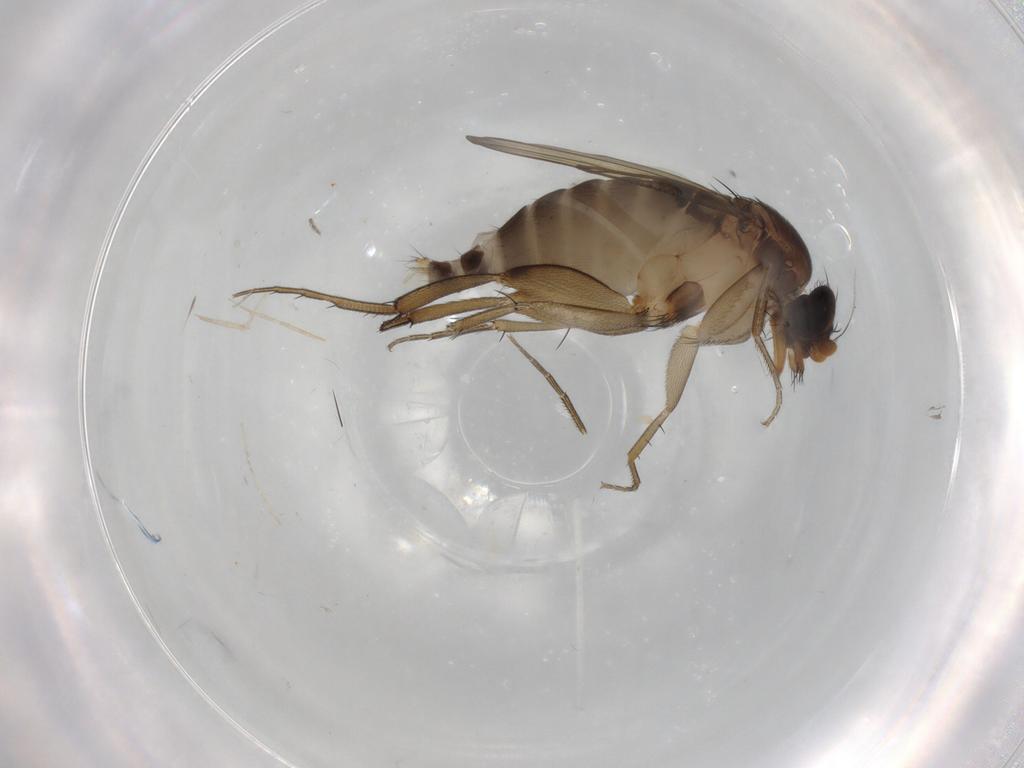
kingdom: Animalia
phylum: Arthropoda
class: Insecta
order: Diptera
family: Phoridae
